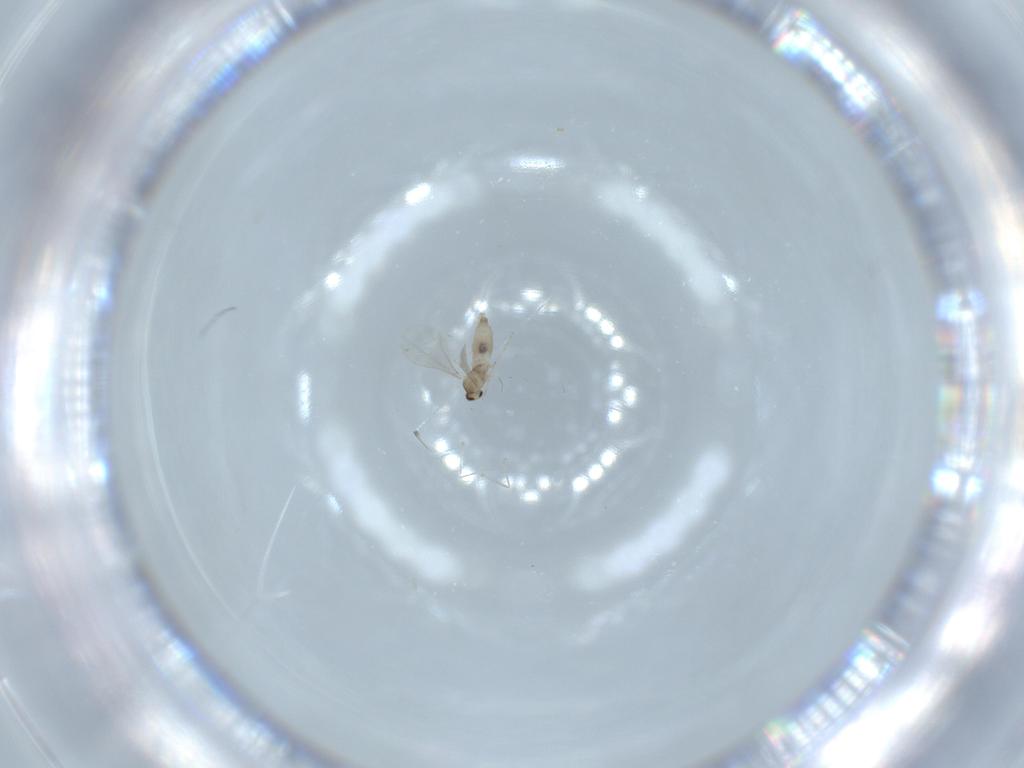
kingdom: Animalia
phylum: Arthropoda
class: Insecta
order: Diptera
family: Cecidomyiidae
